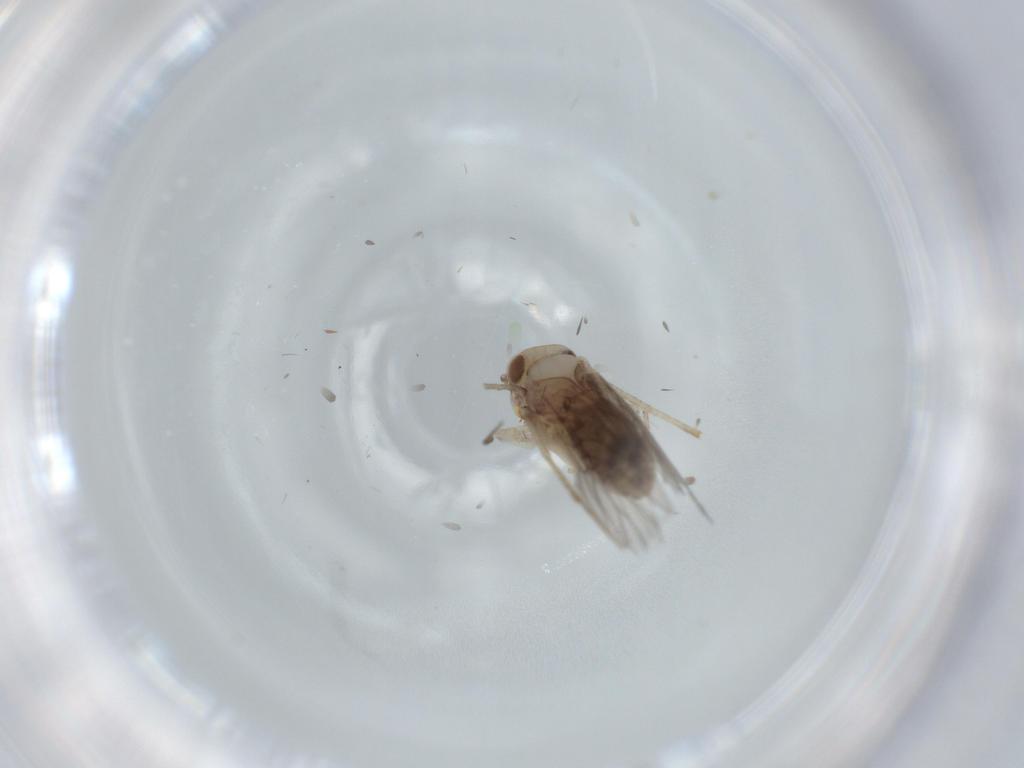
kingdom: Animalia
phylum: Arthropoda
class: Insecta
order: Psocodea
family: Lepidopsocidae
